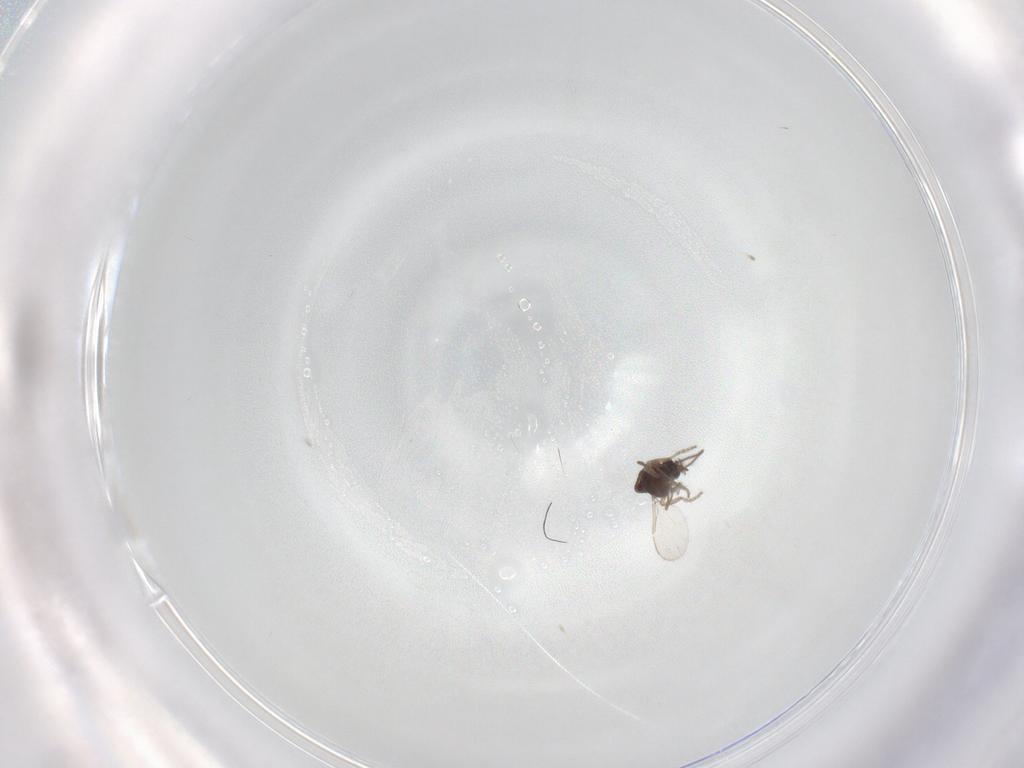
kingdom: Animalia
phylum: Arthropoda
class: Insecta
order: Diptera
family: Ceratopogonidae
